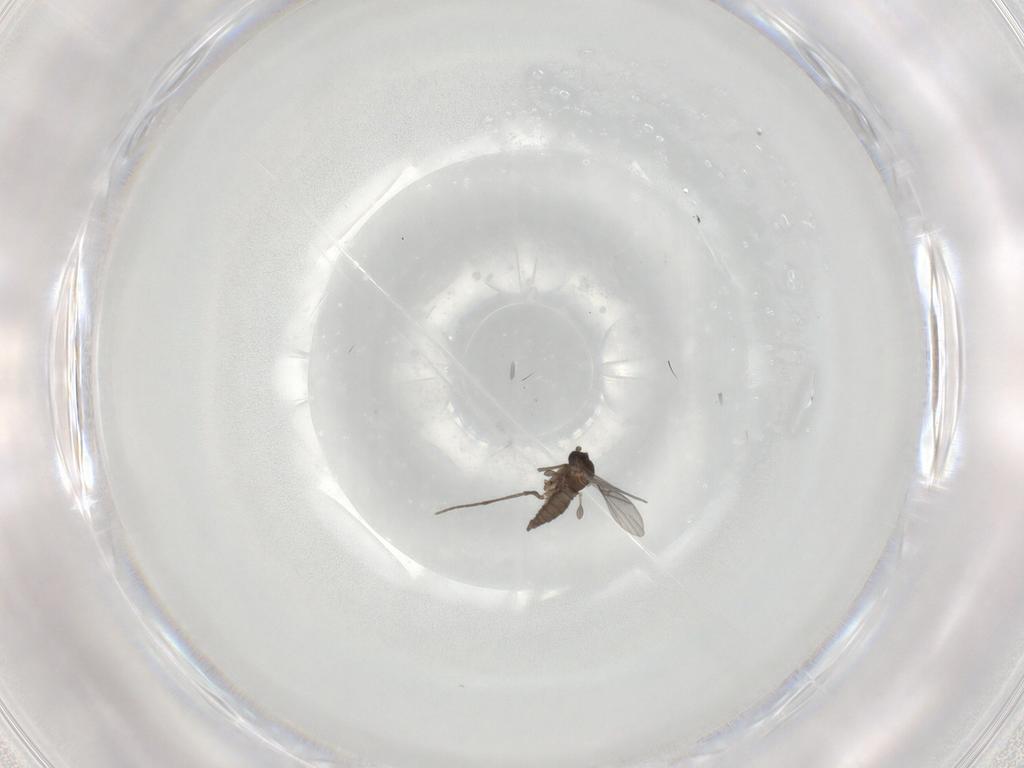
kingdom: Animalia
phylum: Arthropoda
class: Insecta
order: Diptera
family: Sciaridae
